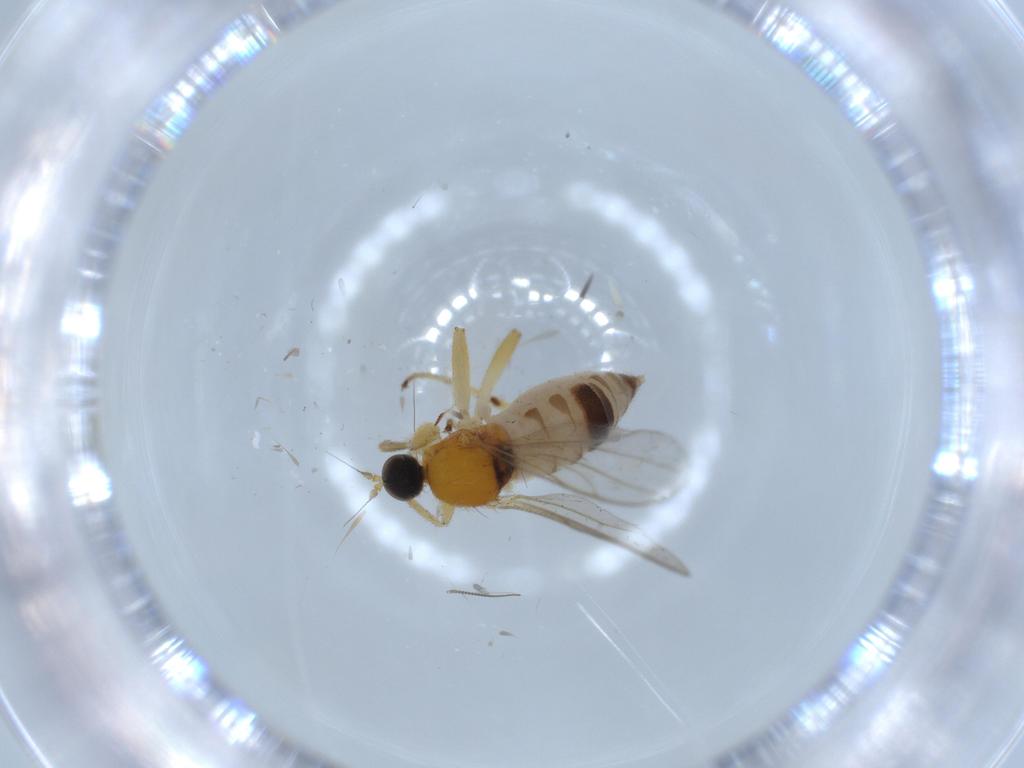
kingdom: Animalia
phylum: Arthropoda
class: Insecta
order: Diptera
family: Hybotidae
